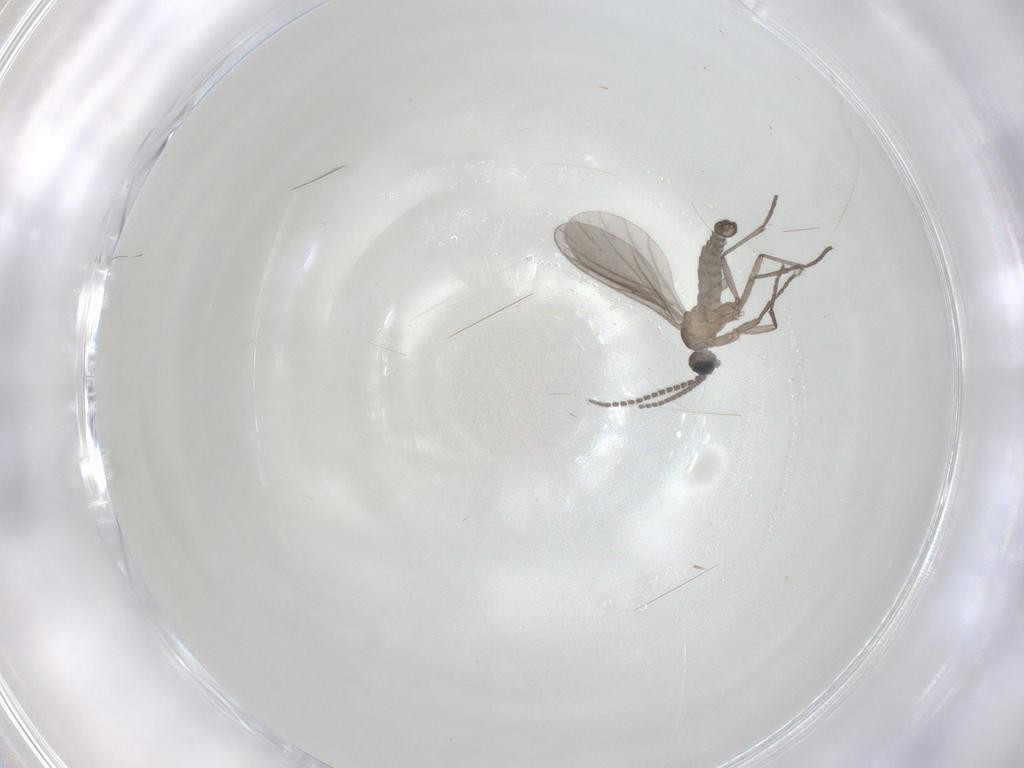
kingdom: Animalia
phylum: Arthropoda
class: Insecta
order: Diptera
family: Sciaridae
